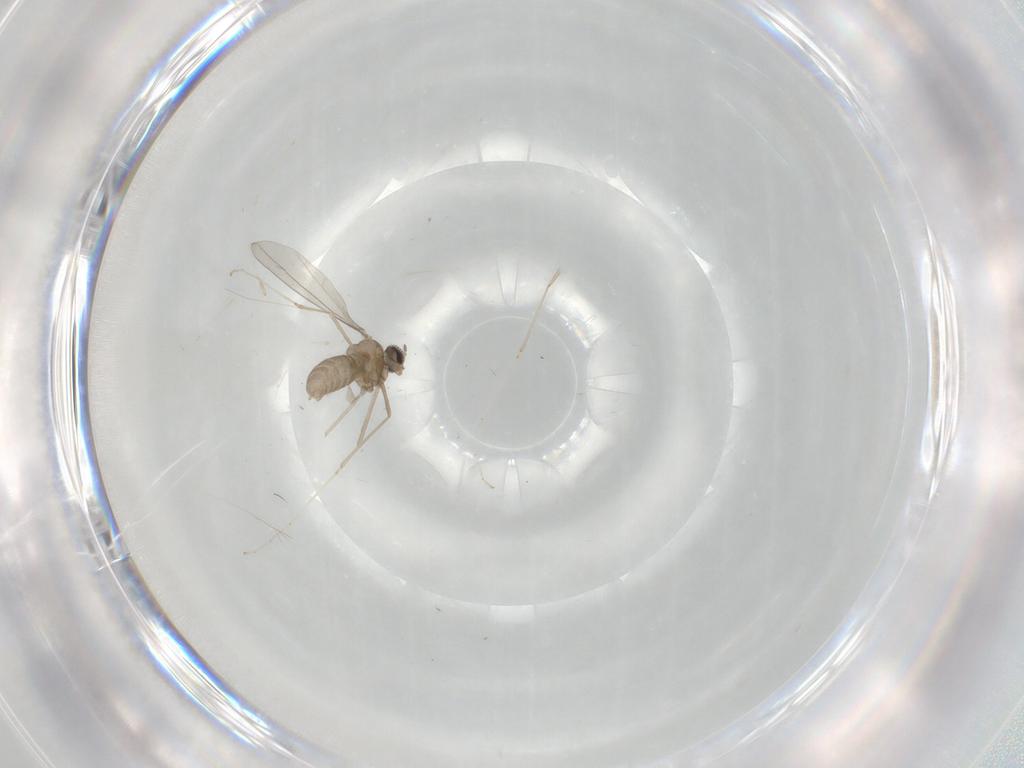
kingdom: Animalia
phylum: Arthropoda
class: Insecta
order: Diptera
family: Cecidomyiidae
